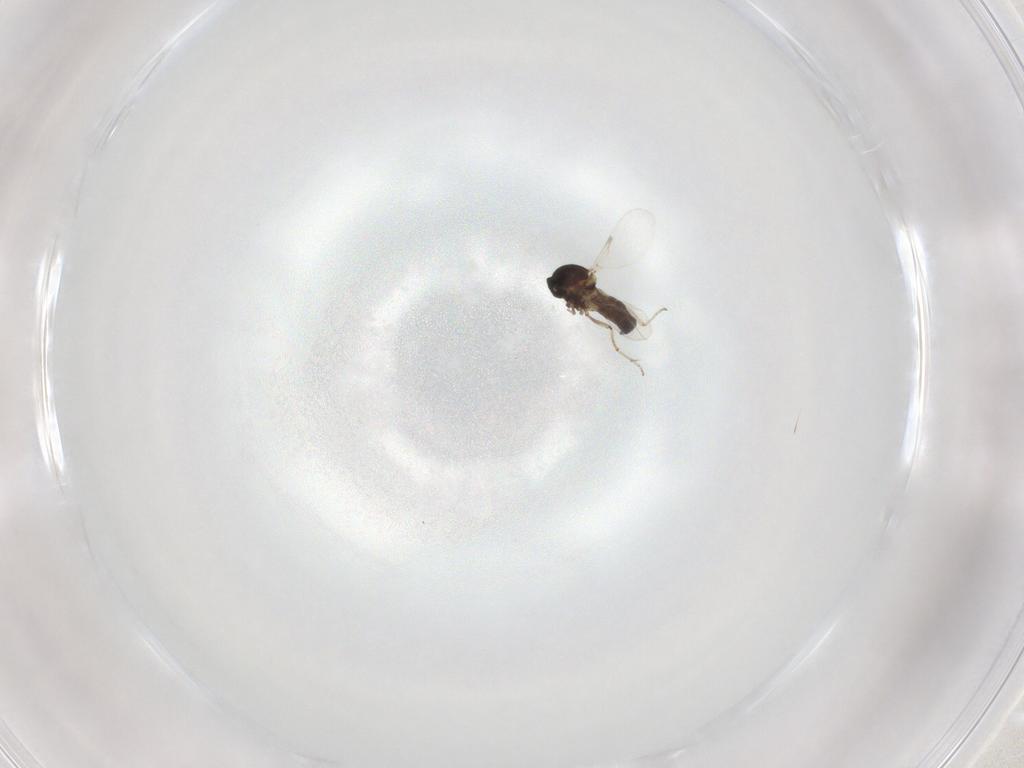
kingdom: Animalia
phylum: Arthropoda
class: Insecta
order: Diptera
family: Ceratopogonidae
